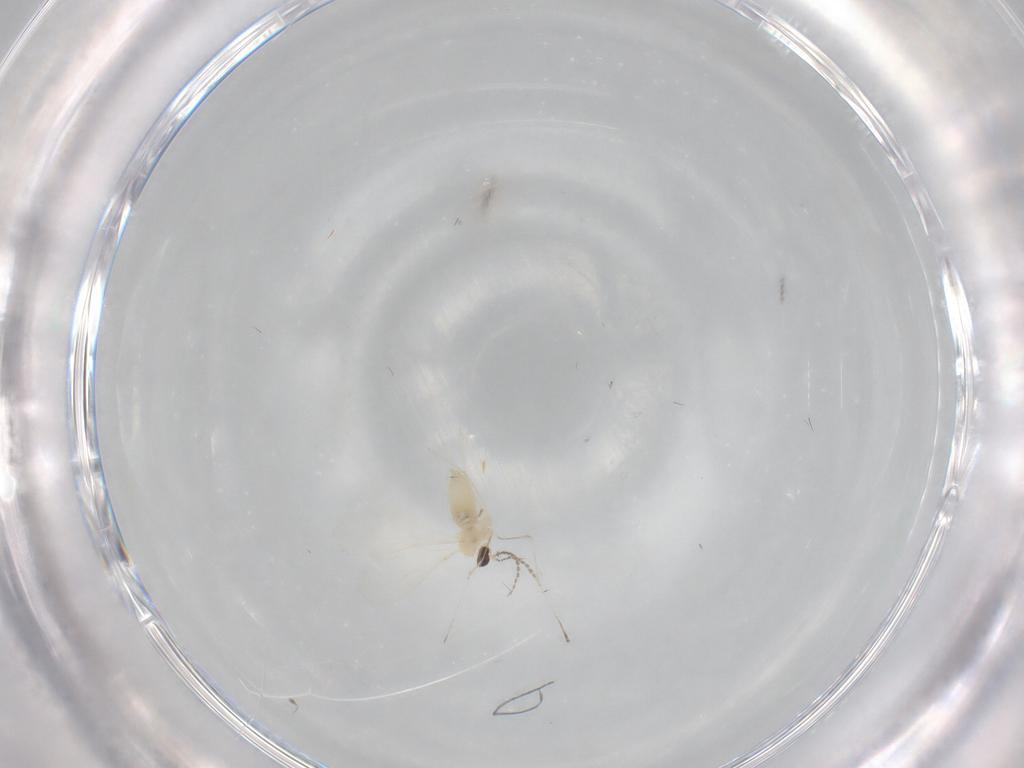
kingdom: Animalia
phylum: Arthropoda
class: Insecta
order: Diptera
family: Cecidomyiidae
